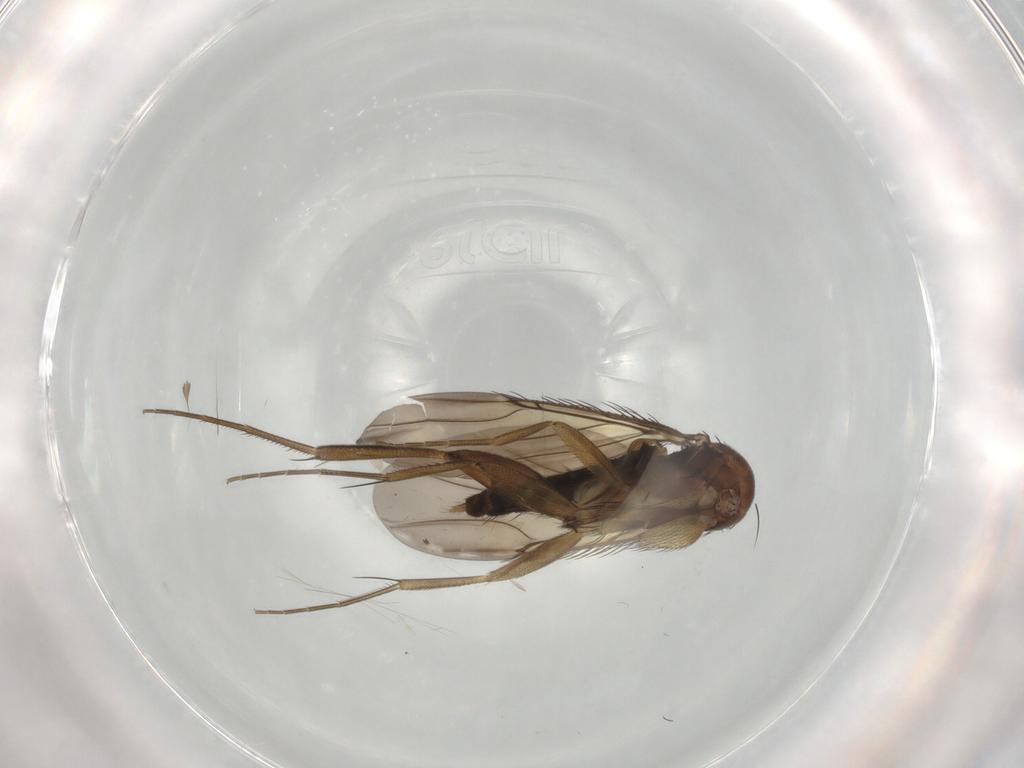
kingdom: Animalia
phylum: Arthropoda
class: Insecta
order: Diptera
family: Phoridae
